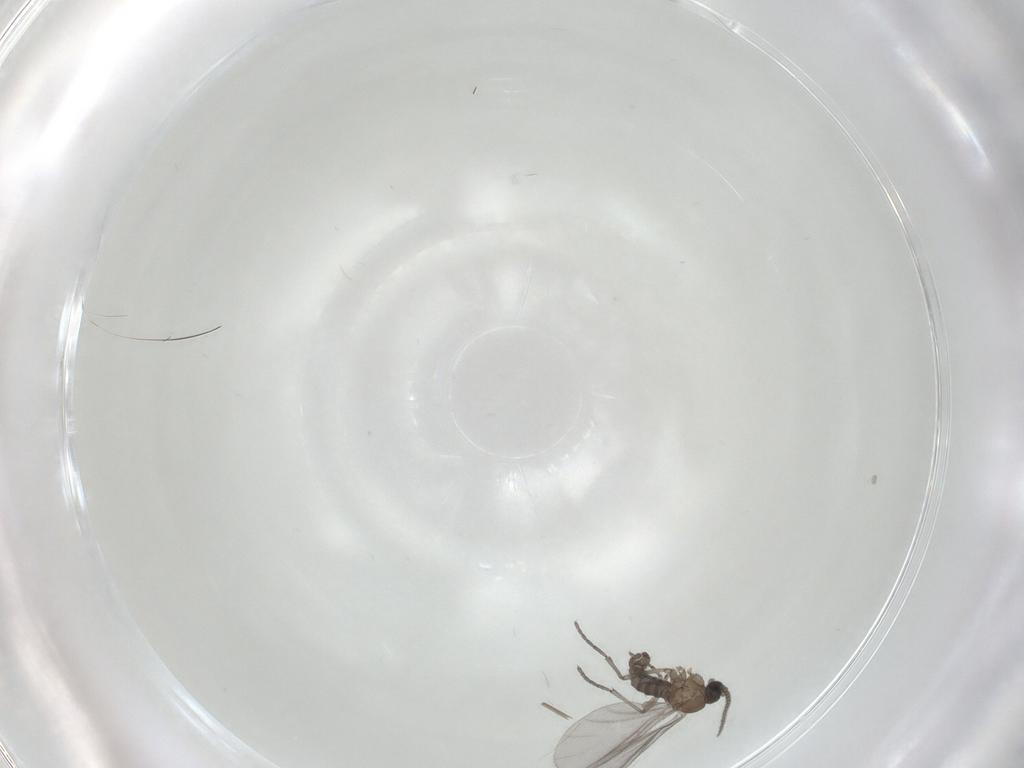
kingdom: Animalia
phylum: Arthropoda
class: Insecta
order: Diptera
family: Sciaridae
